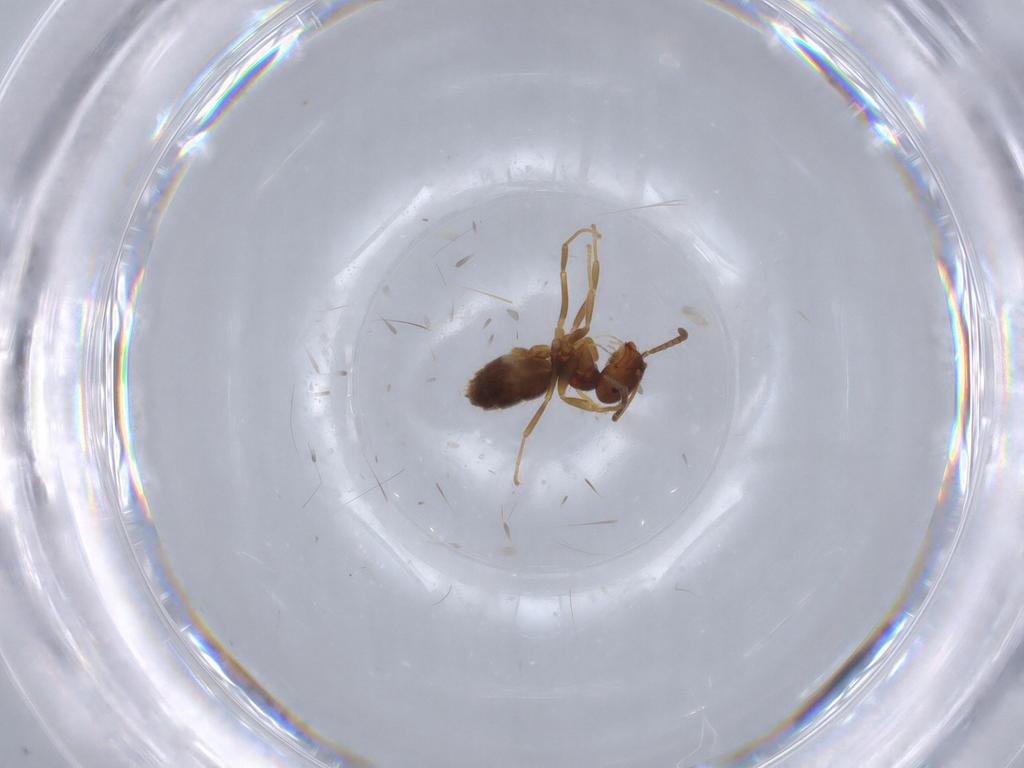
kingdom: Animalia
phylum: Arthropoda
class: Insecta
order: Hymenoptera
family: Formicidae
